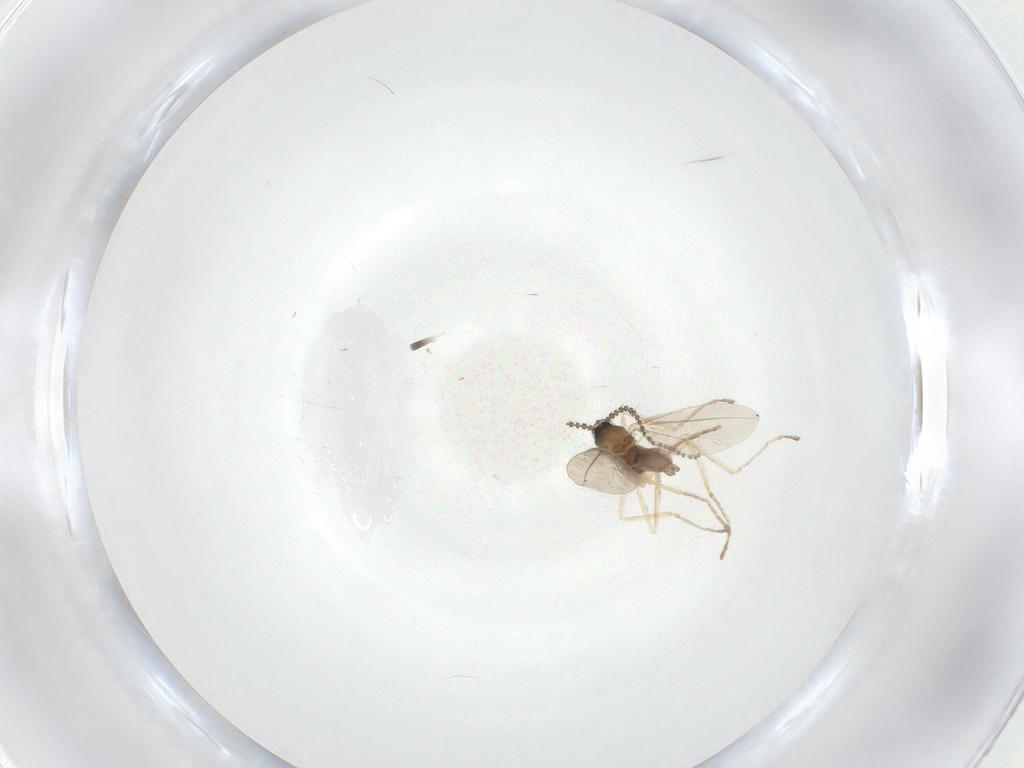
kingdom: Animalia
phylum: Arthropoda
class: Insecta
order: Diptera
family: Cecidomyiidae
